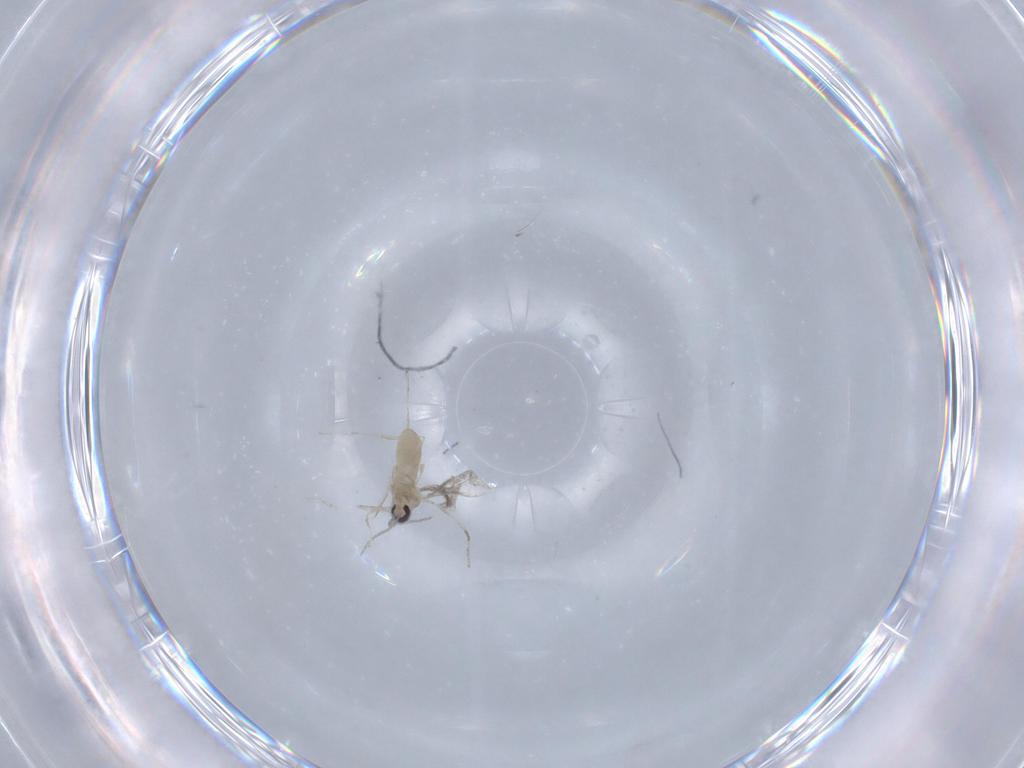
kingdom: Animalia
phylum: Arthropoda
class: Insecta
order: Diptera
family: Cecidomyiidae
